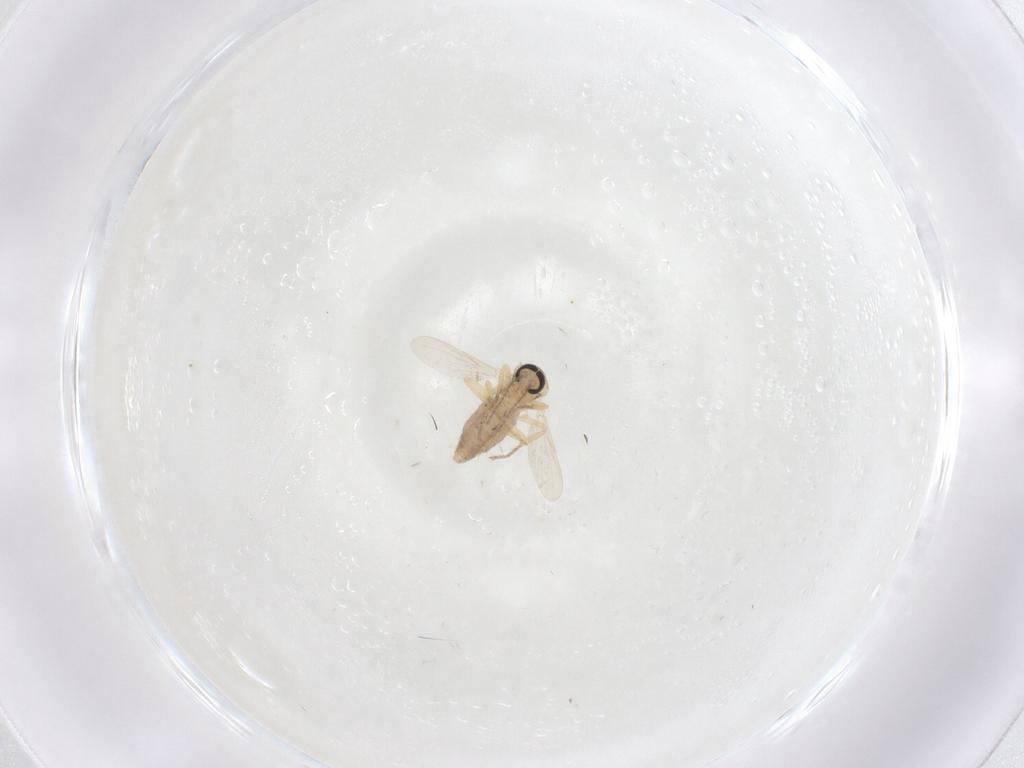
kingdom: Animalia
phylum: Arthropoda
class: Insecta
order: Diptera
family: Ceratopogonidae
